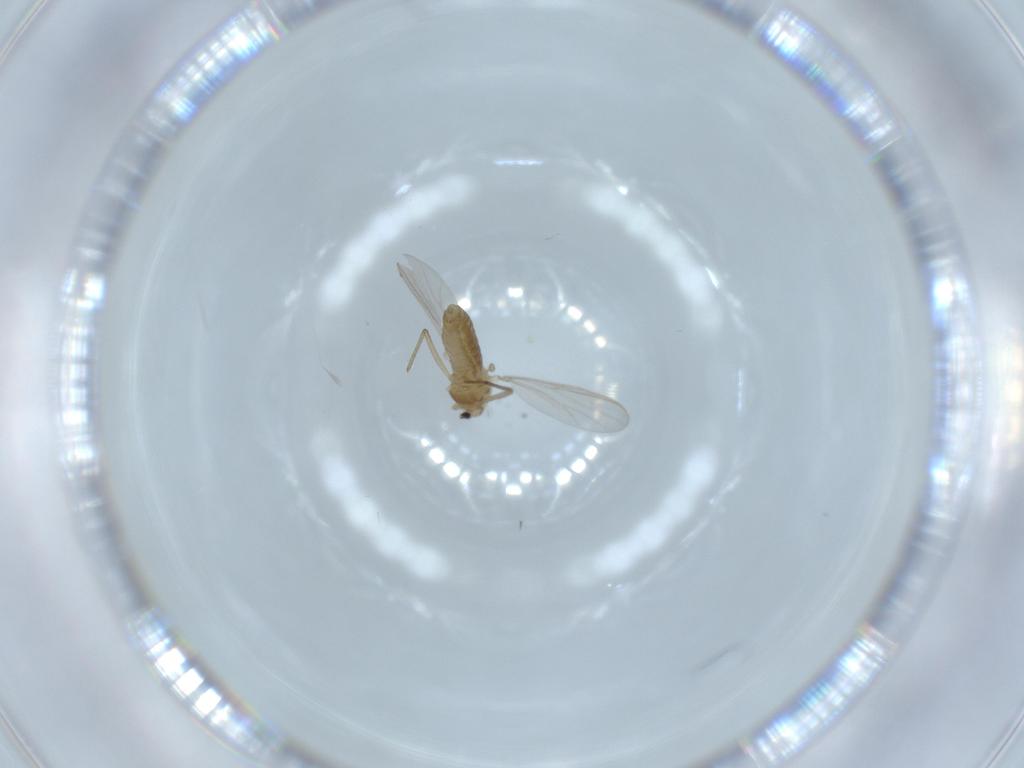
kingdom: Animalia
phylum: Arthropoda
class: Insecta
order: Diptera
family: Chironomidae
